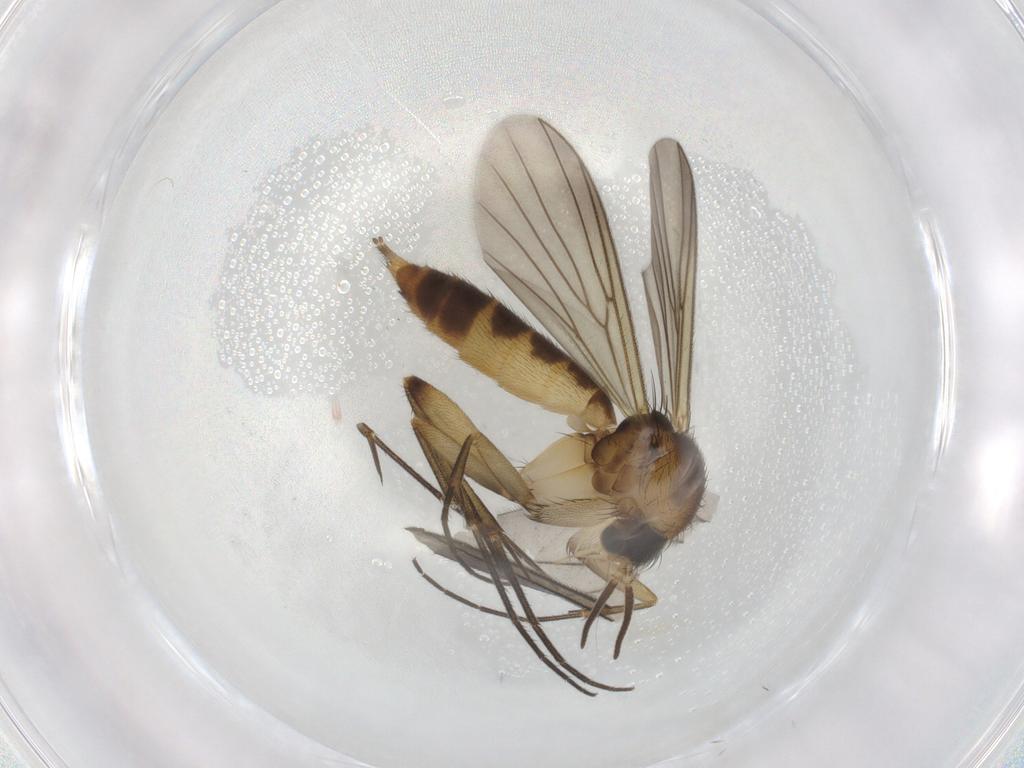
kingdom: Animalia
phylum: Arthropoda
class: Insecta
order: Diptera
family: Mycetophilidae
